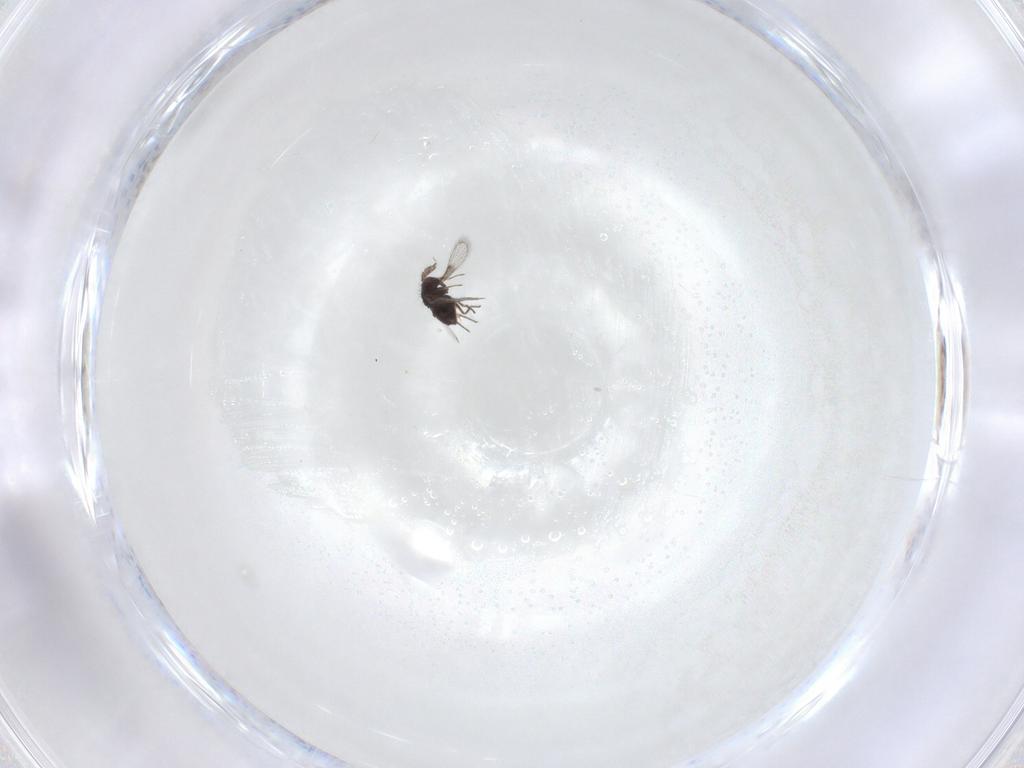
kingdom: Animalia
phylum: Arthropoda
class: Insecta
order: Hymenoptera
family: Trichogrammatidae
